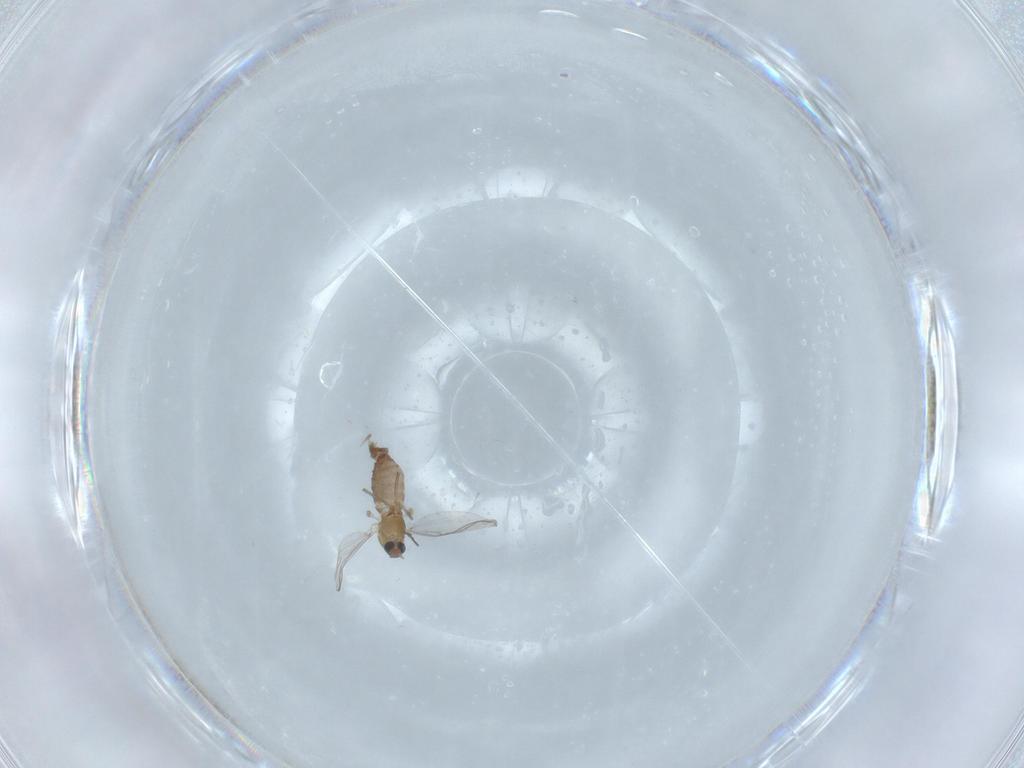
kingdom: Animalia
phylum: Arthropoda
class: Insecta
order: Diptera
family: Chironomidae
